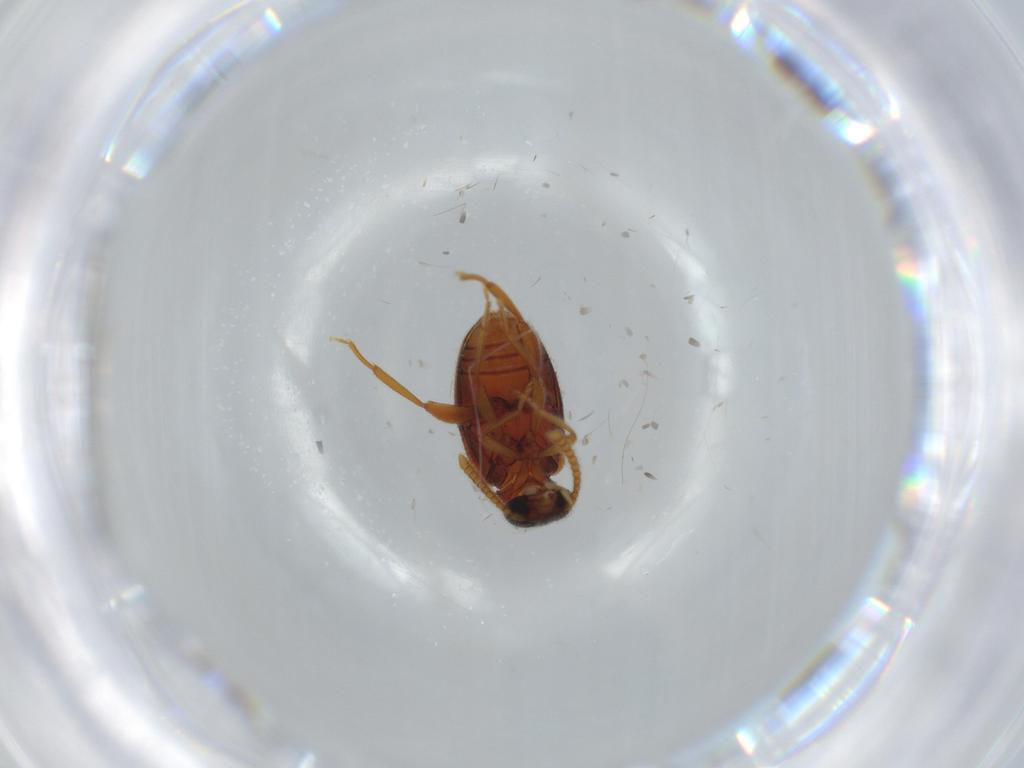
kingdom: Animalia
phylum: Arthropoda
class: Insecta
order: Coleoptera
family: Aderidae
